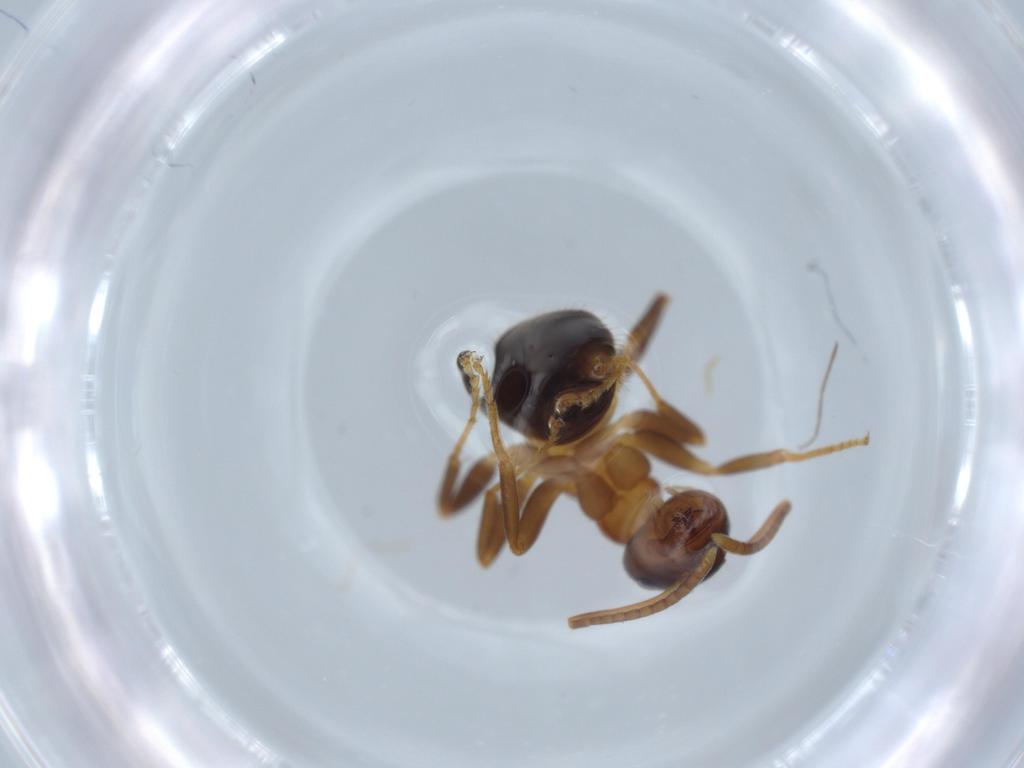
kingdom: Animalia
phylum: Arthropoda
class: Insecta
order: Hymenoptera
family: Formicidae
